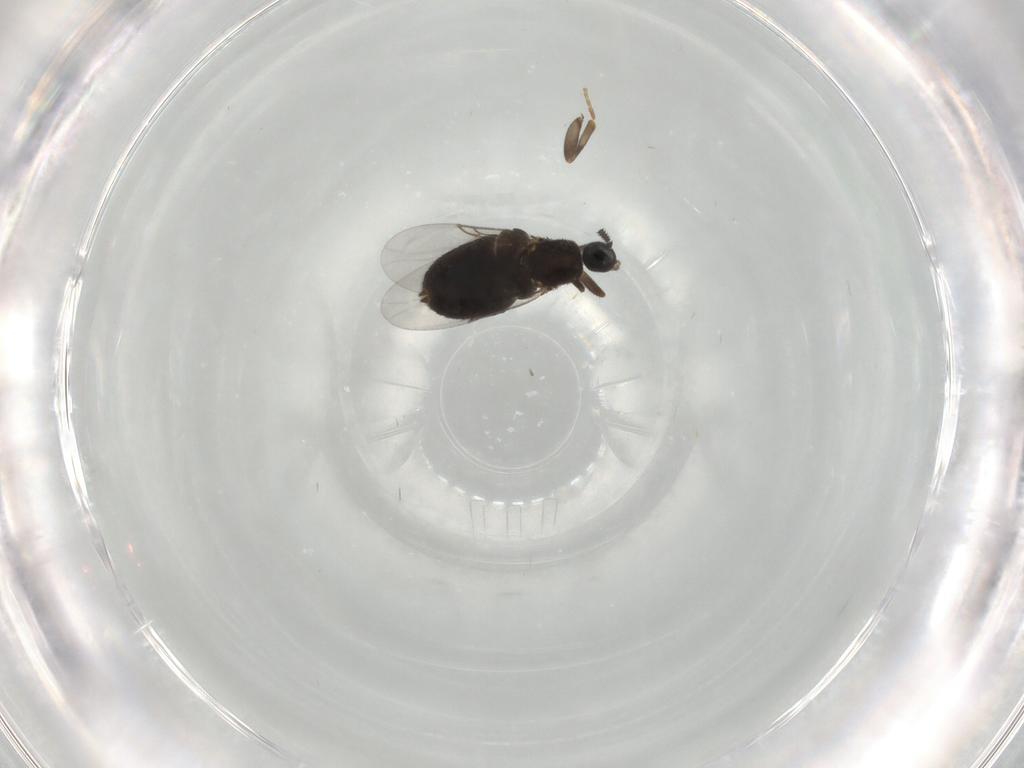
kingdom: Animalia
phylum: Arthropoda
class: Insecta
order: Diptera
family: Scatopsidae
